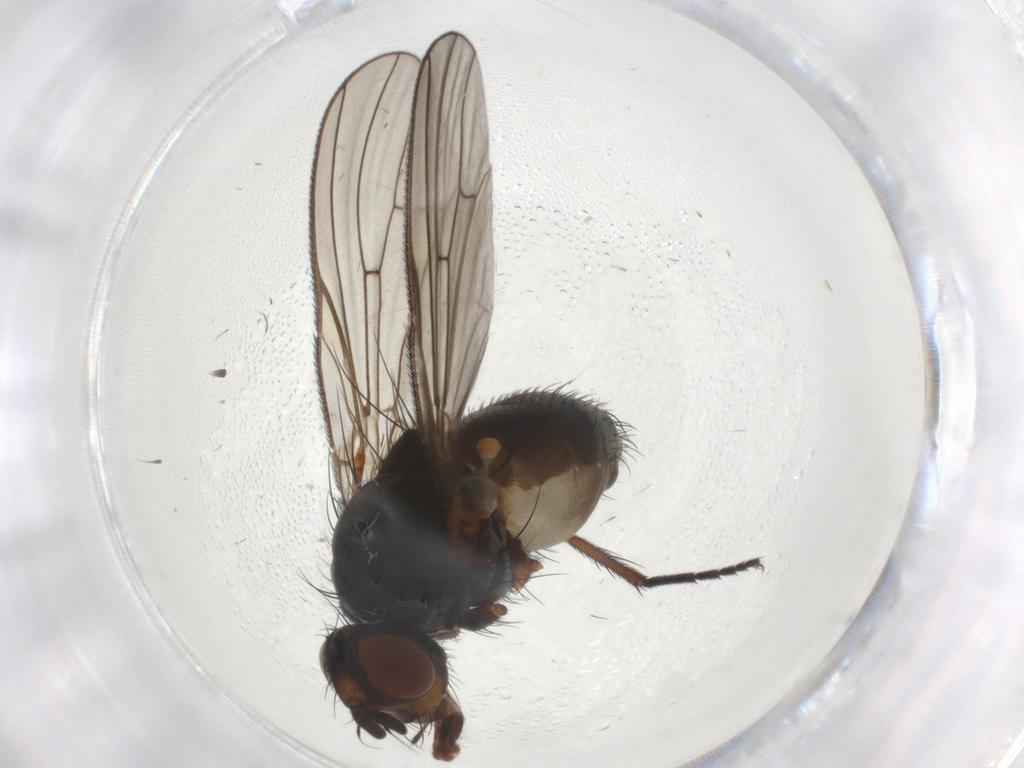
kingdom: Animalia
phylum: Arthropoda
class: Insecta
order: Diptera
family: Anthomyiidae
